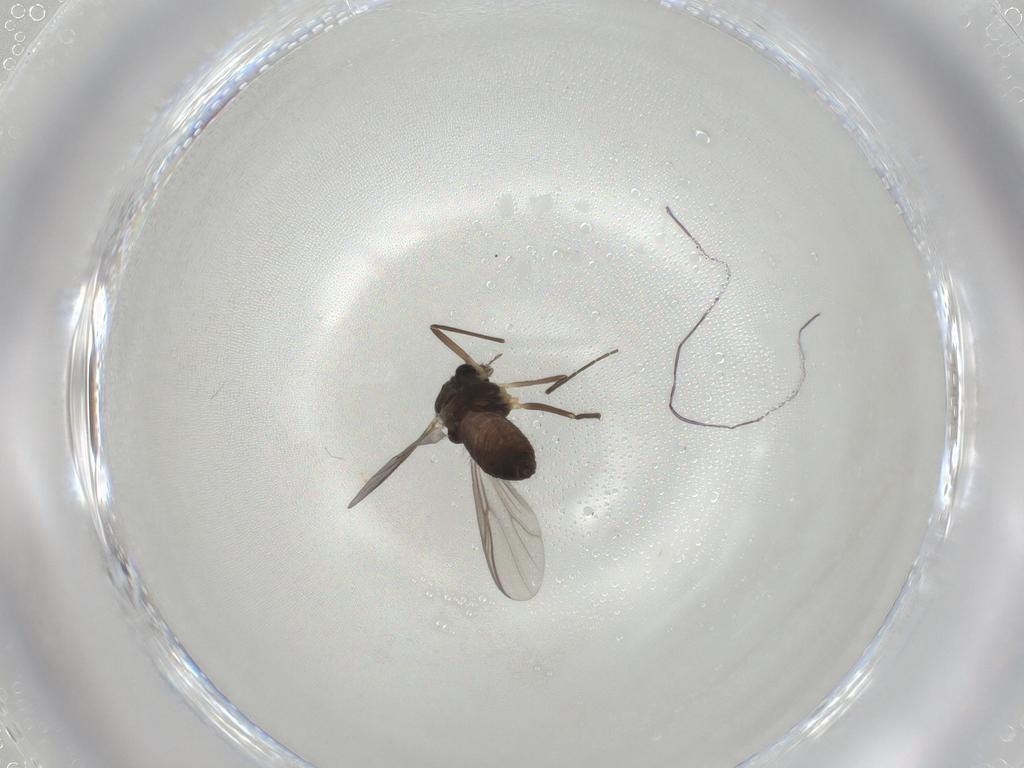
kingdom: Animalia
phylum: Arthropoda
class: Insecta
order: Diptera
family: Chironomidae
